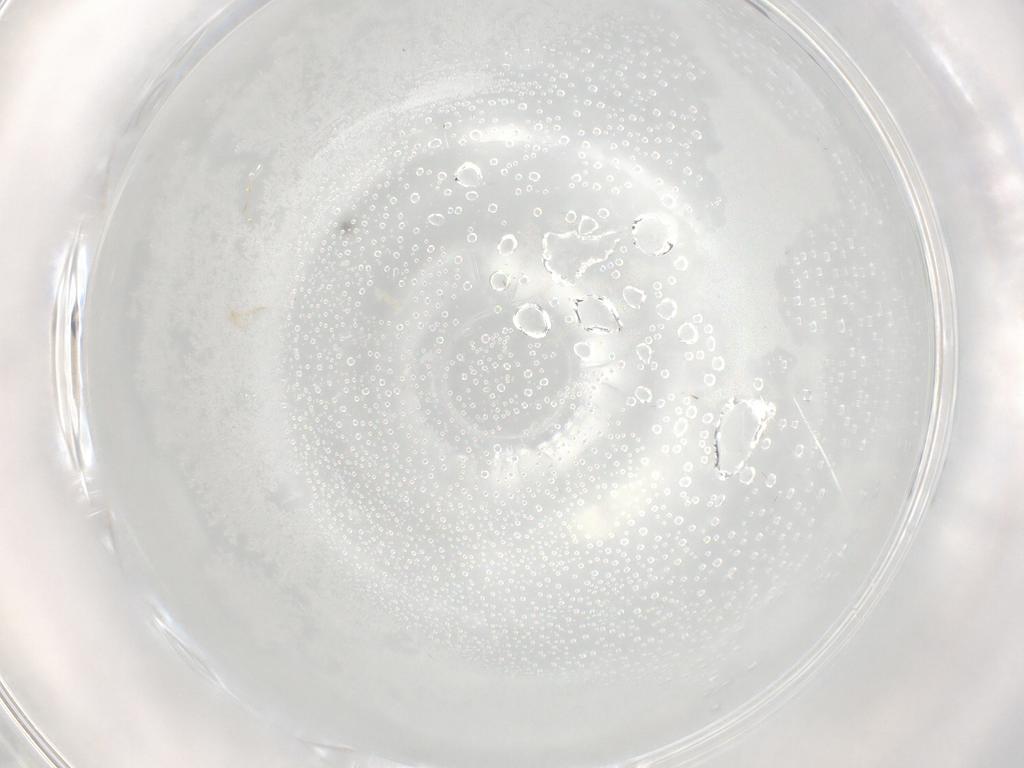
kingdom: Animalia
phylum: Arthropoda
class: Insecta
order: Diptera
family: Chironomidae
